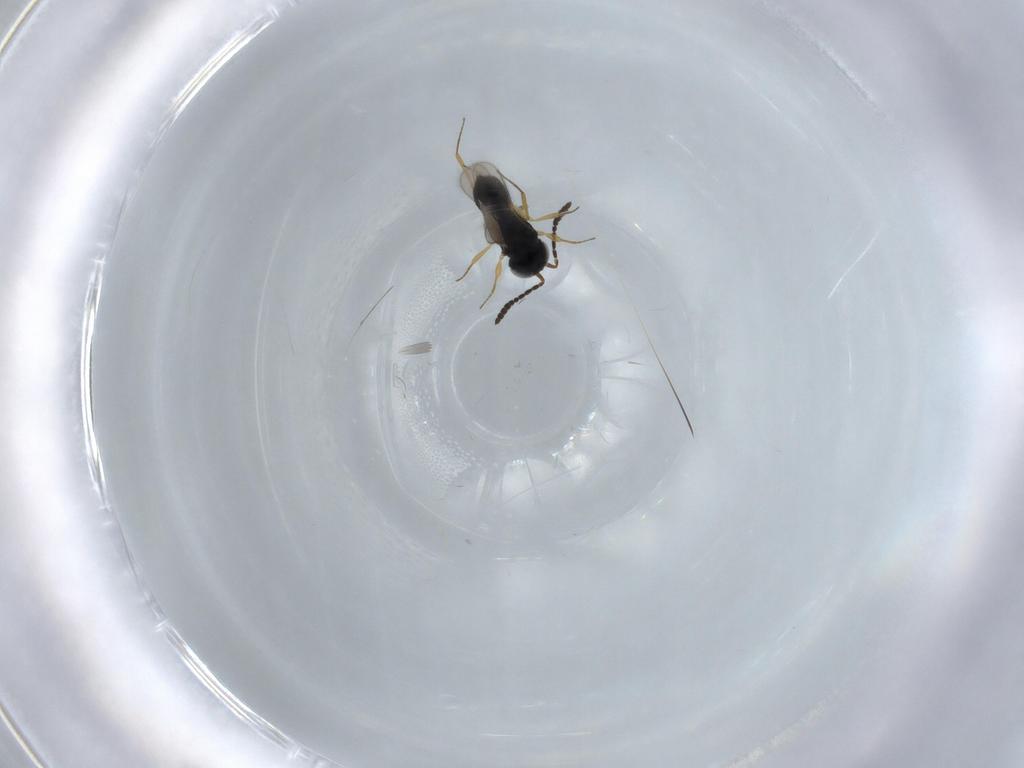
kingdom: Animalia
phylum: Arthropoda
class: Insecta
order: Hymenoptera
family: Scelionidae
